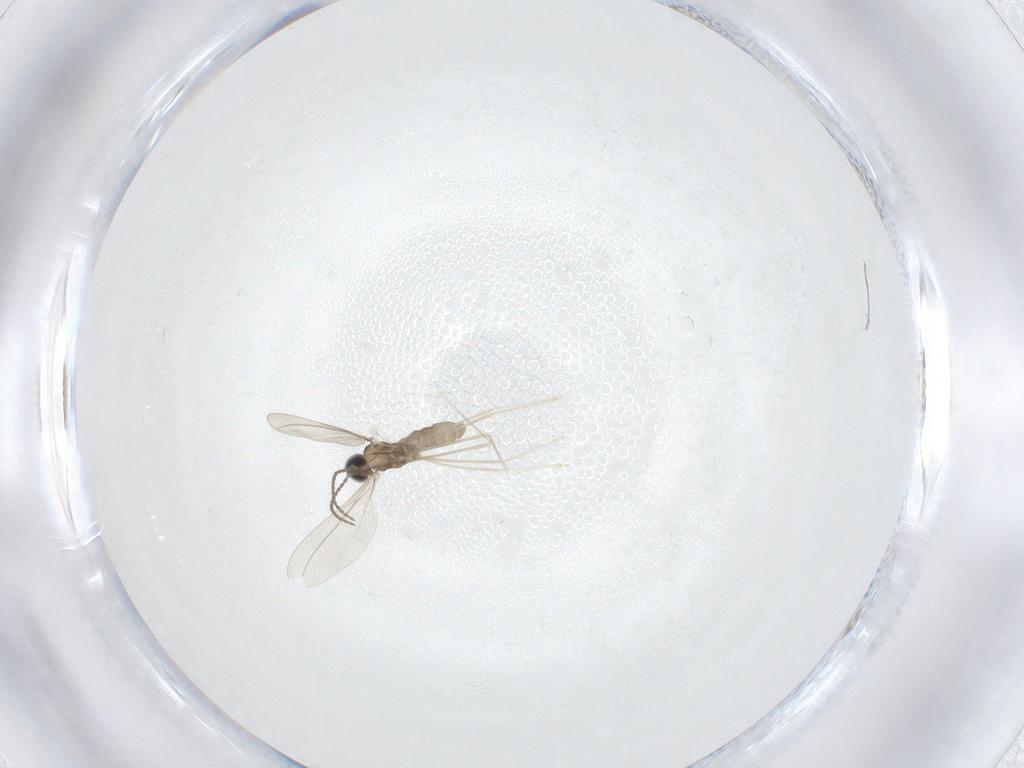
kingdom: Animalia
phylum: Arthropoda
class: Insecta
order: Diptera
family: Cecidomyiidae
